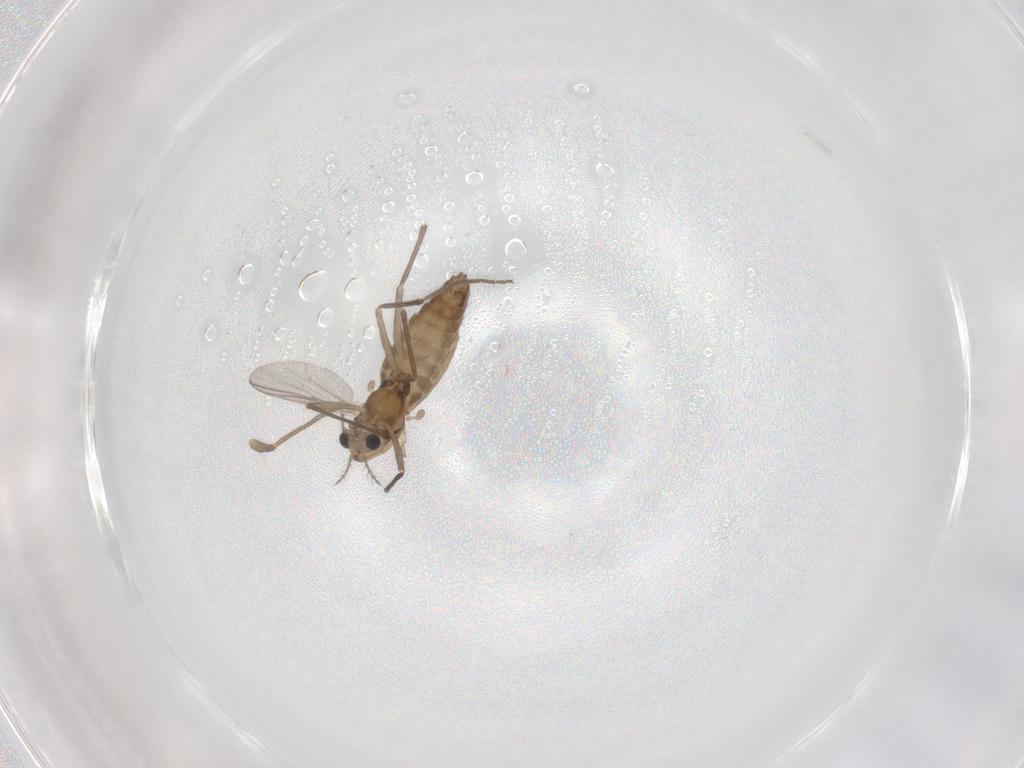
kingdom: Animalia
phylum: Arthropoda
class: Insecta
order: Diptera
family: Chironomidae
